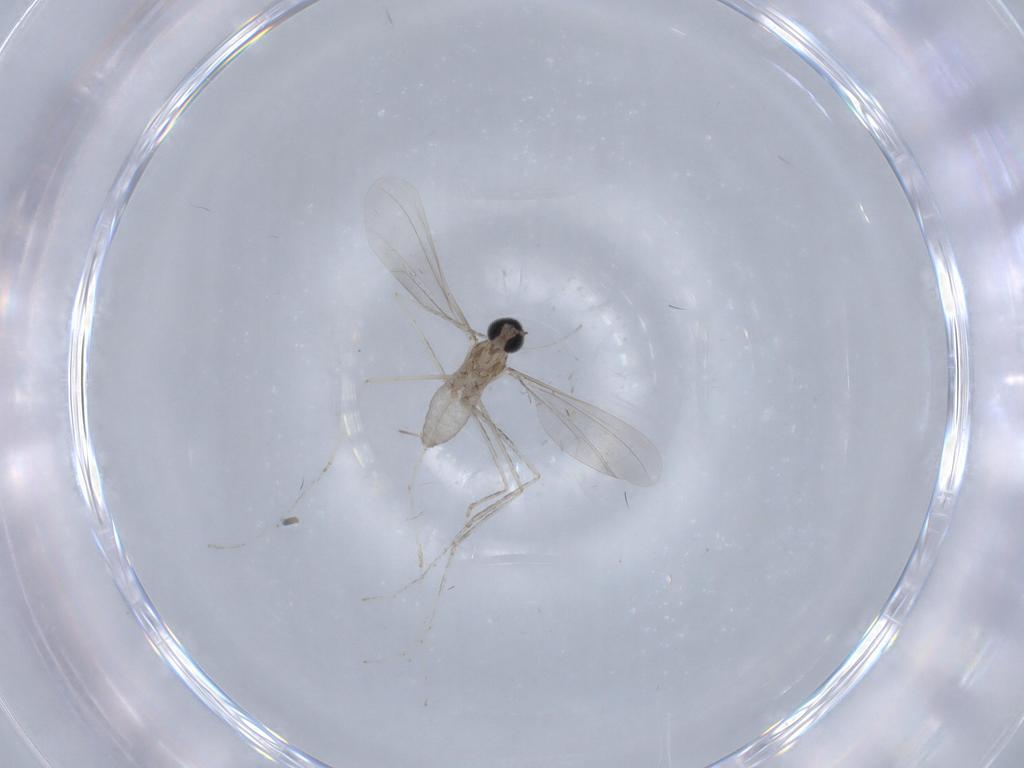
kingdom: Animalia
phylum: Arthropoda
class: Insecta
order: Diptera
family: Cecidomyiidae
